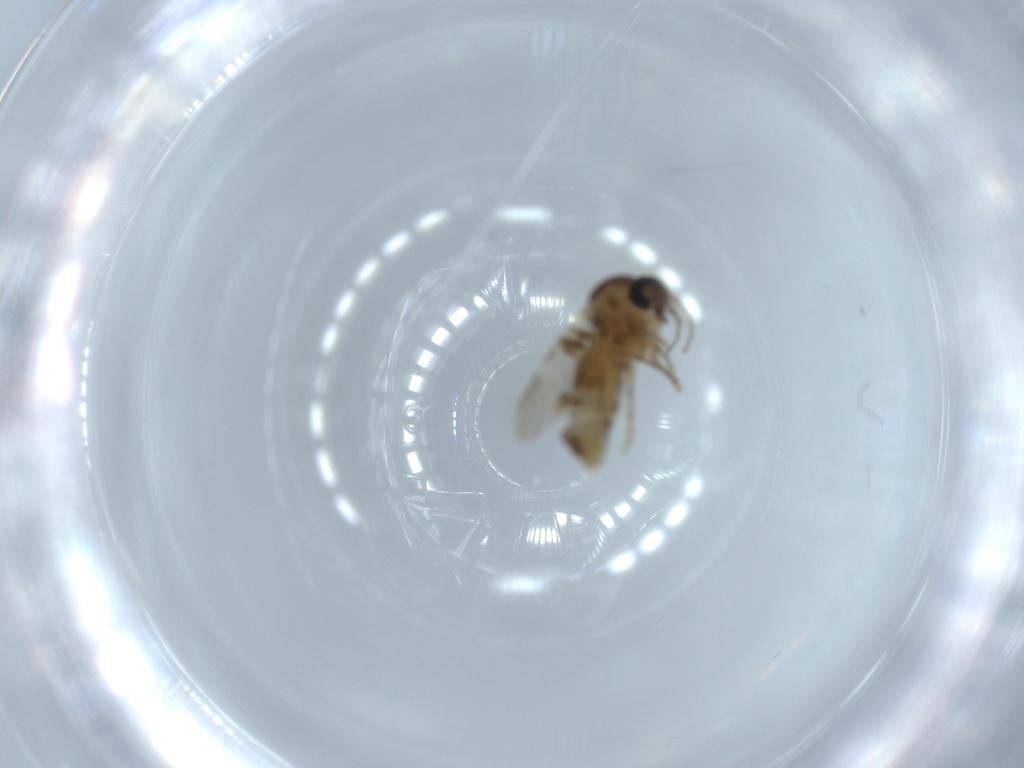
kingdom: Animalia
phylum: Arthropoda
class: Insecta
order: Diptera
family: Ceratopogonidae
